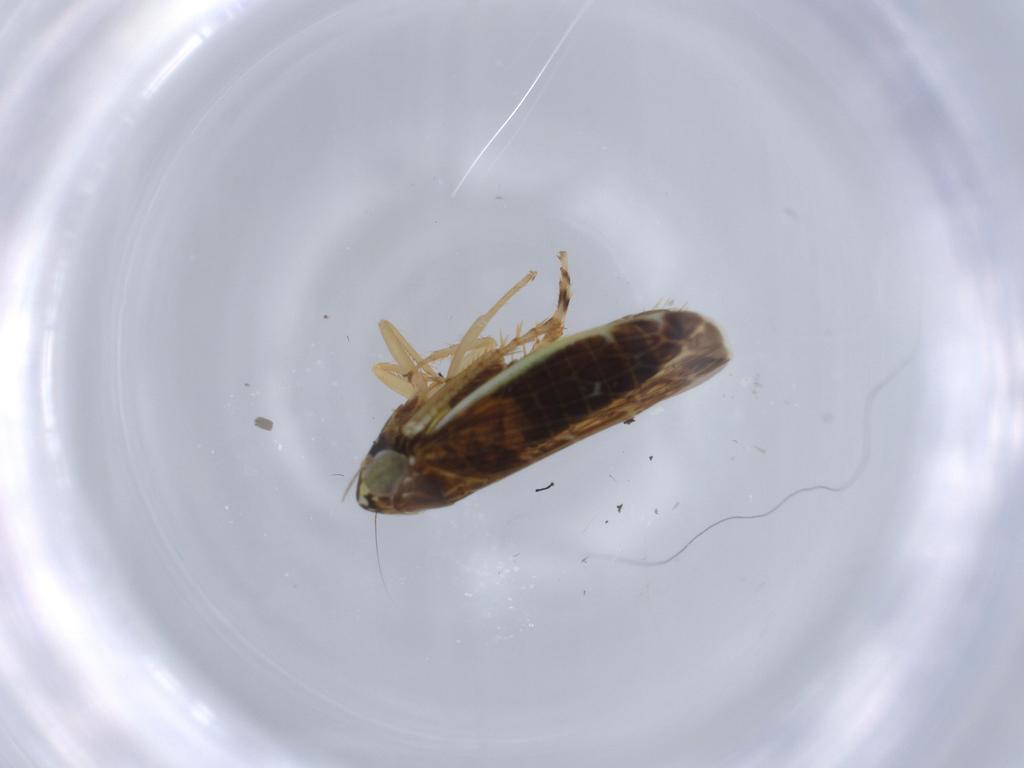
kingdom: Animalia
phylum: Arthropoda
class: Insecta
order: Hemiptera
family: Cicadellidae
